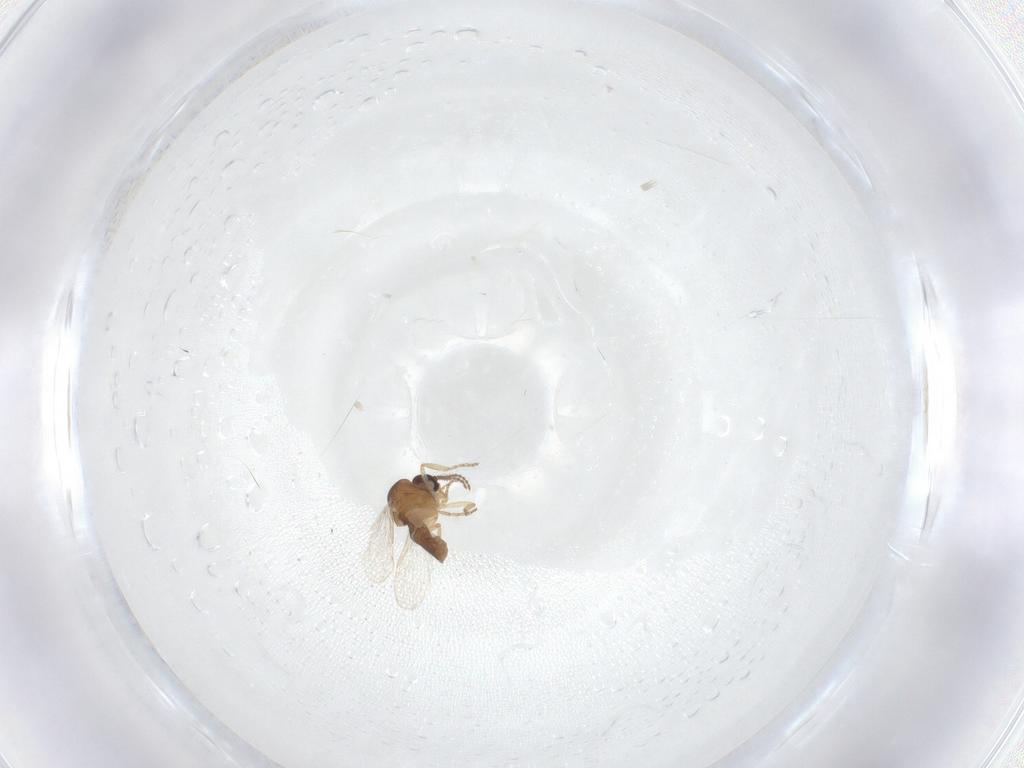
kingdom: Animalia
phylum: Arthropoda
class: Insecta
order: Diptera
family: Ceratopogonidae
